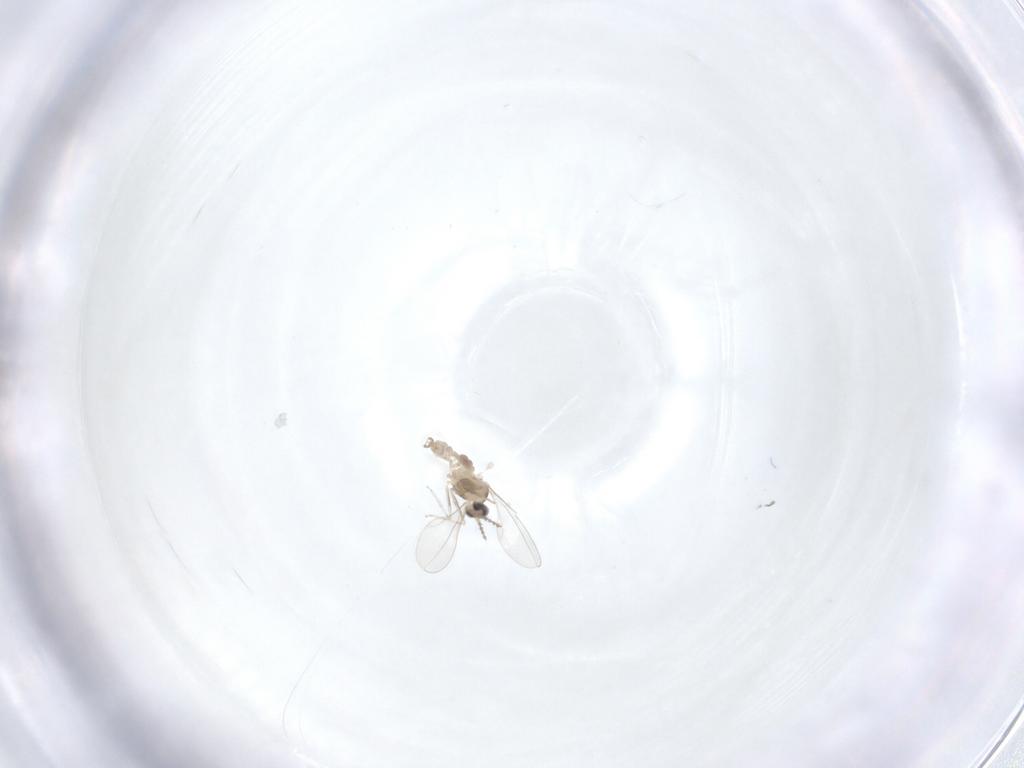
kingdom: Animalia
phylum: Arthropoda
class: Insecta
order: Diptera
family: Cecidomyiidae
